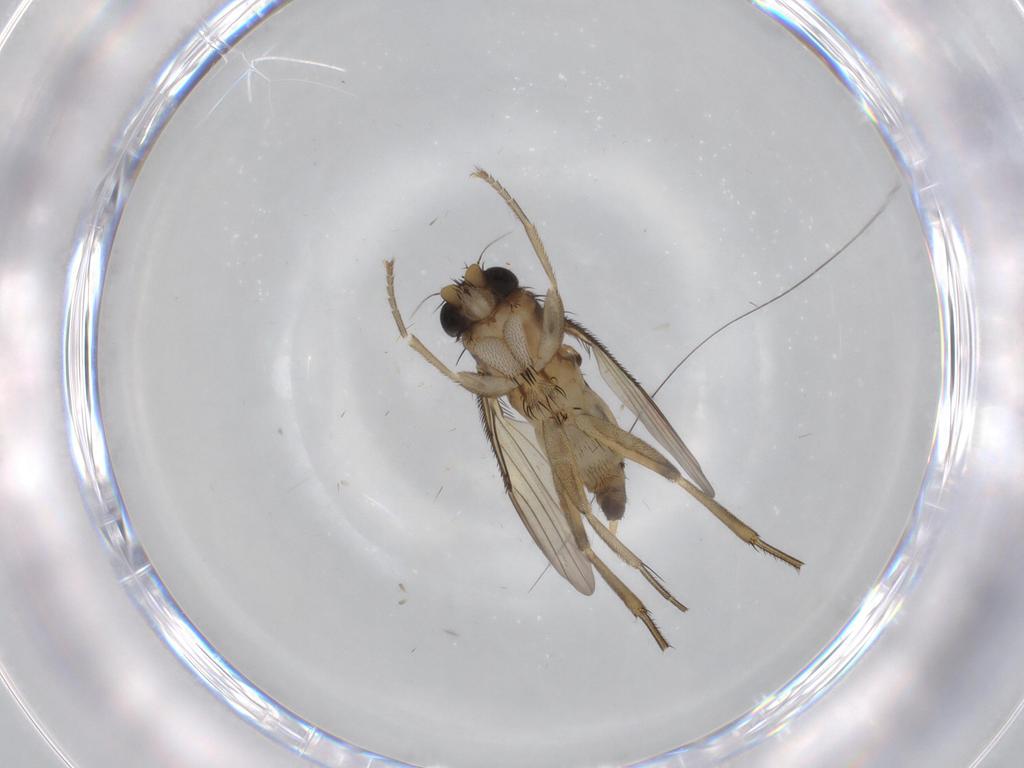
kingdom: Animalia
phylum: Arthropoda
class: Insecta
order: Diptera
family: Phoridae
